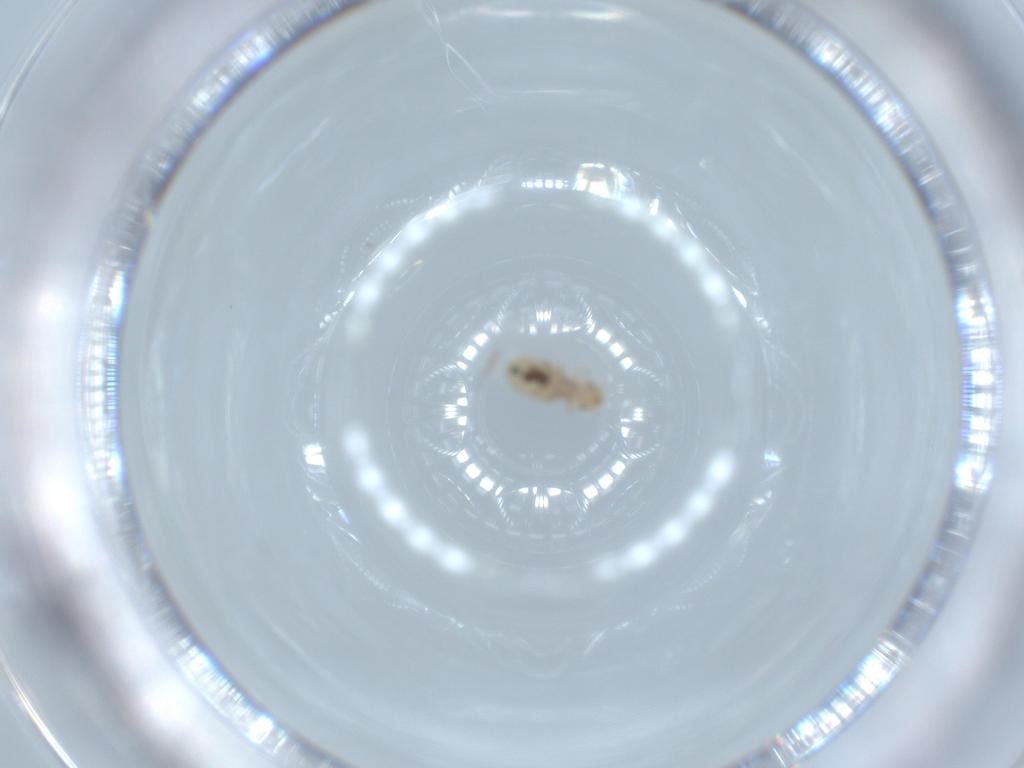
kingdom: Animalia
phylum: Arthropoda
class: Insecta
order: Psocodea
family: Liposcelididae
